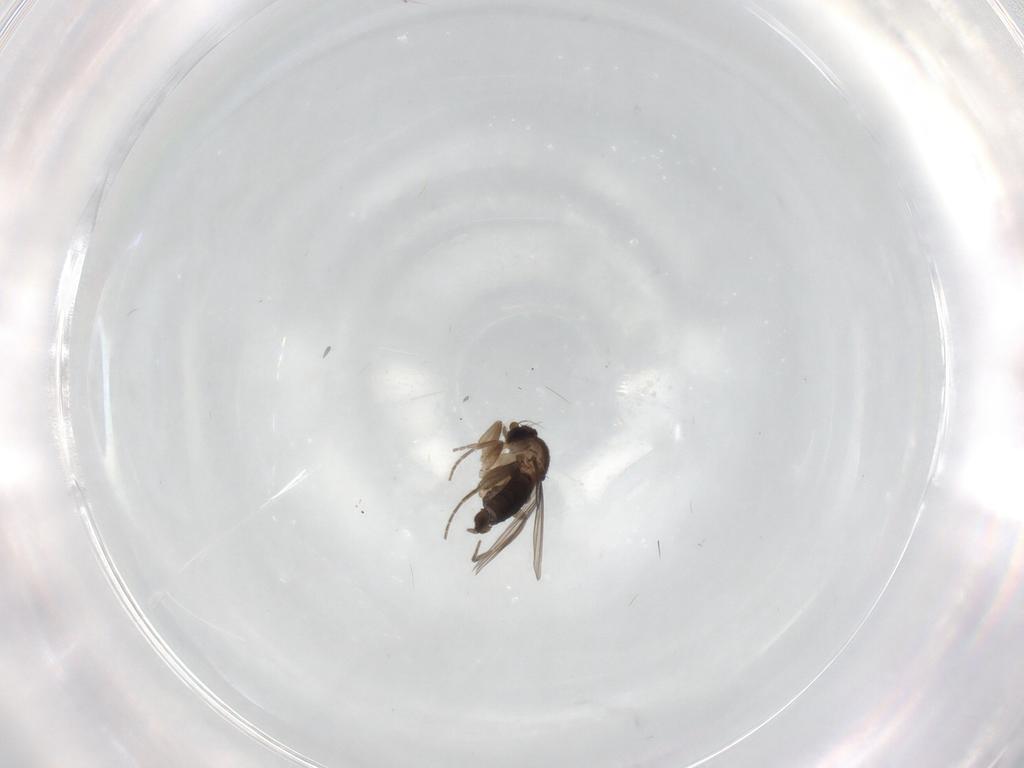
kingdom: Animalia
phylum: Arthropoda
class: Insecta
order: Diptera
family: Phoridae
